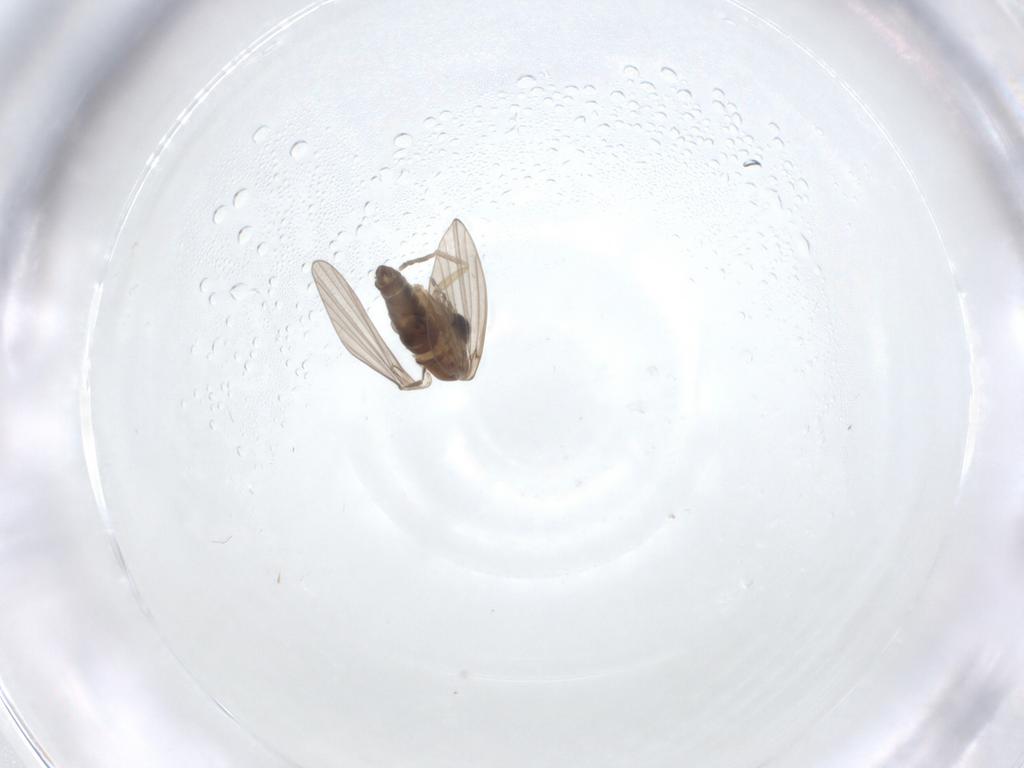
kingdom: Animalia
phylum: Arthropoda
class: Insecta
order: Diptera
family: Cecidomyiidae
